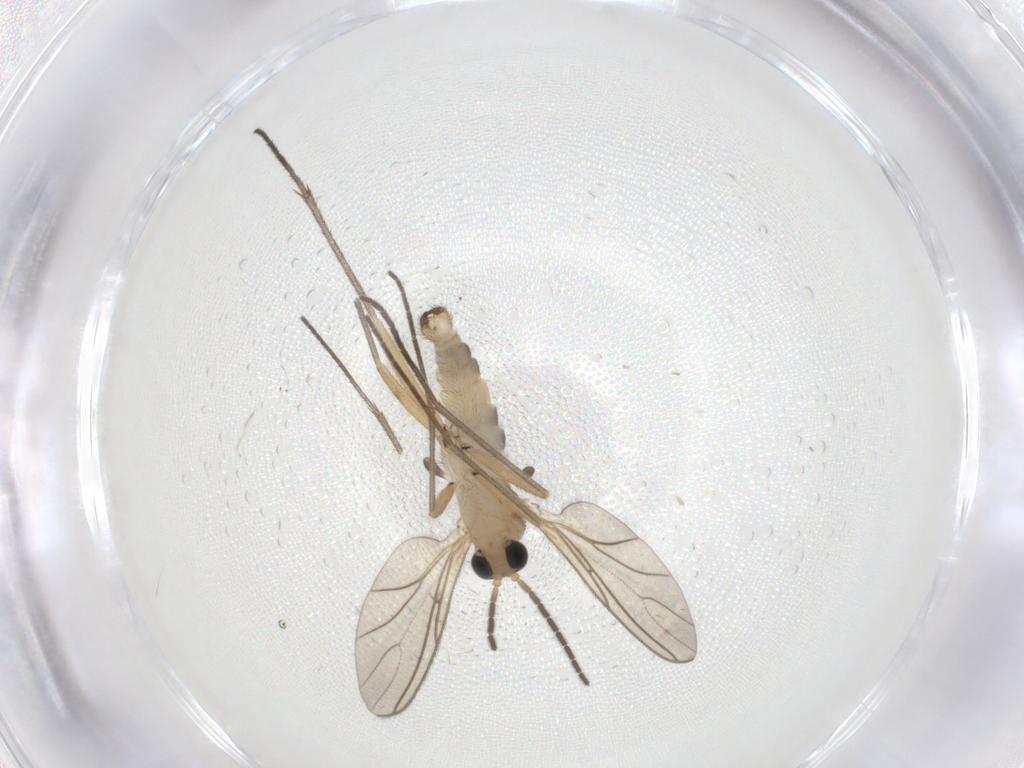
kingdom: Animalia
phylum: Arthropoda
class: Insecta
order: Diptera
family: Sciaridae
